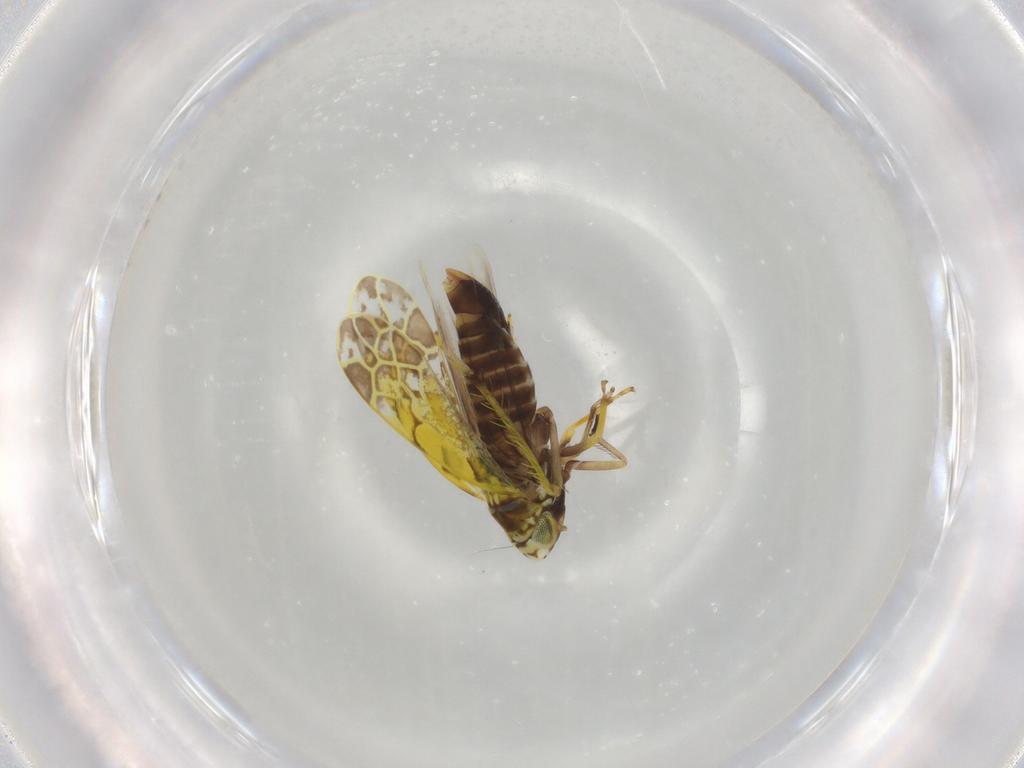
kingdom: Animalia
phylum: Arthropoda
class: Insecta
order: Hemiptera
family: Cicadellidae
